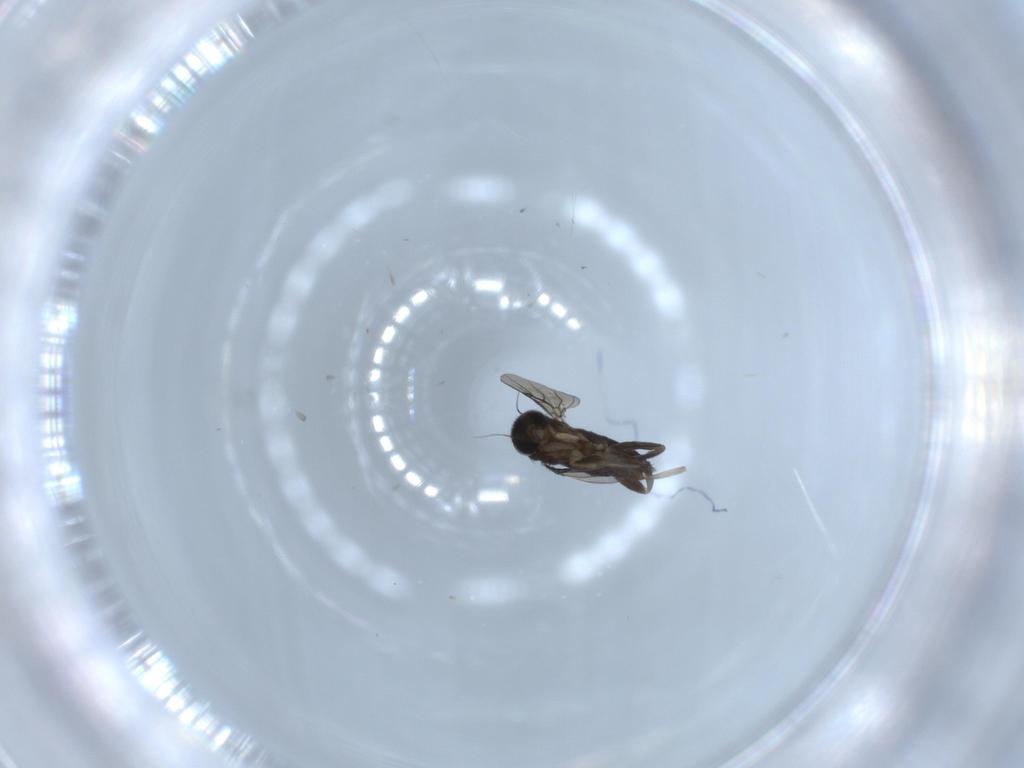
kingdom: Animalia
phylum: Arthropoda
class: Insecta
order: Diptera
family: Phoridae
